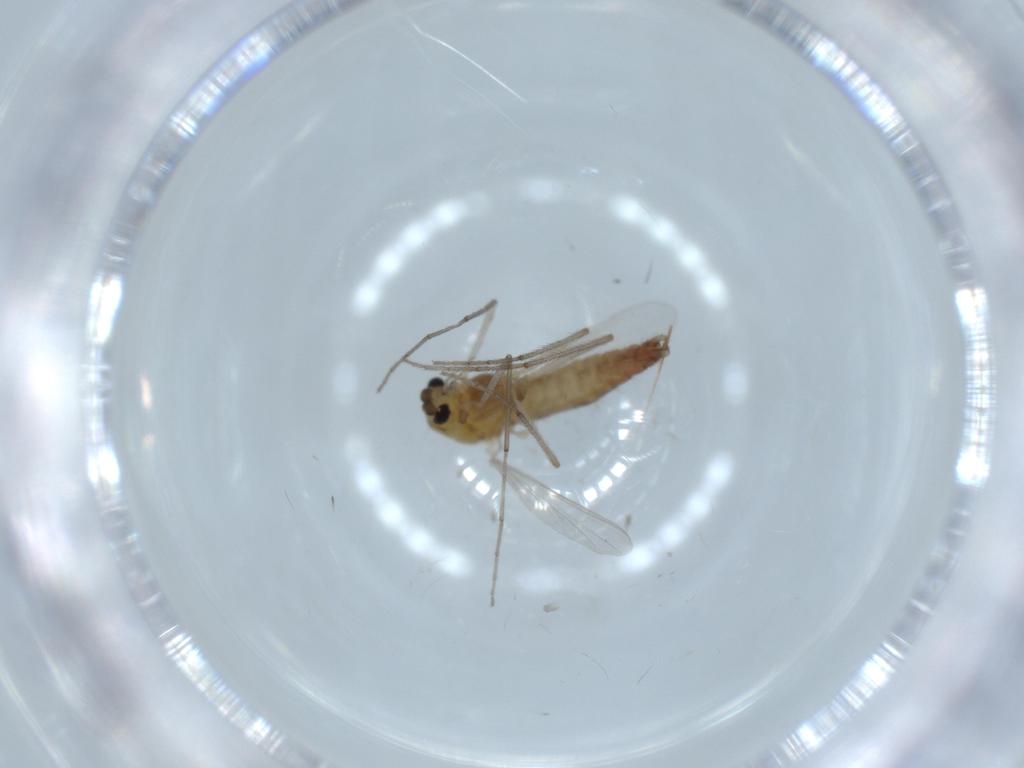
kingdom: Animalia
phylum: Arthropoda
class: Insecta
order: Diptera
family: Chironomidae
